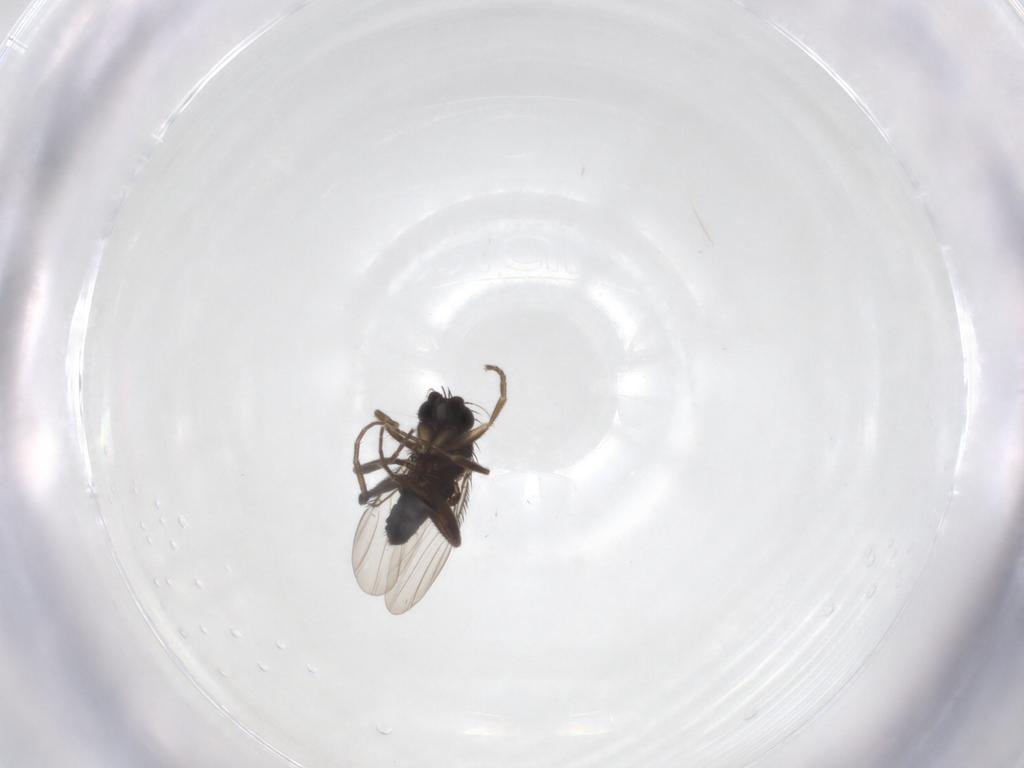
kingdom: Animalia
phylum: Arthropoda
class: Insecta
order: Diptera
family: Phoridae
